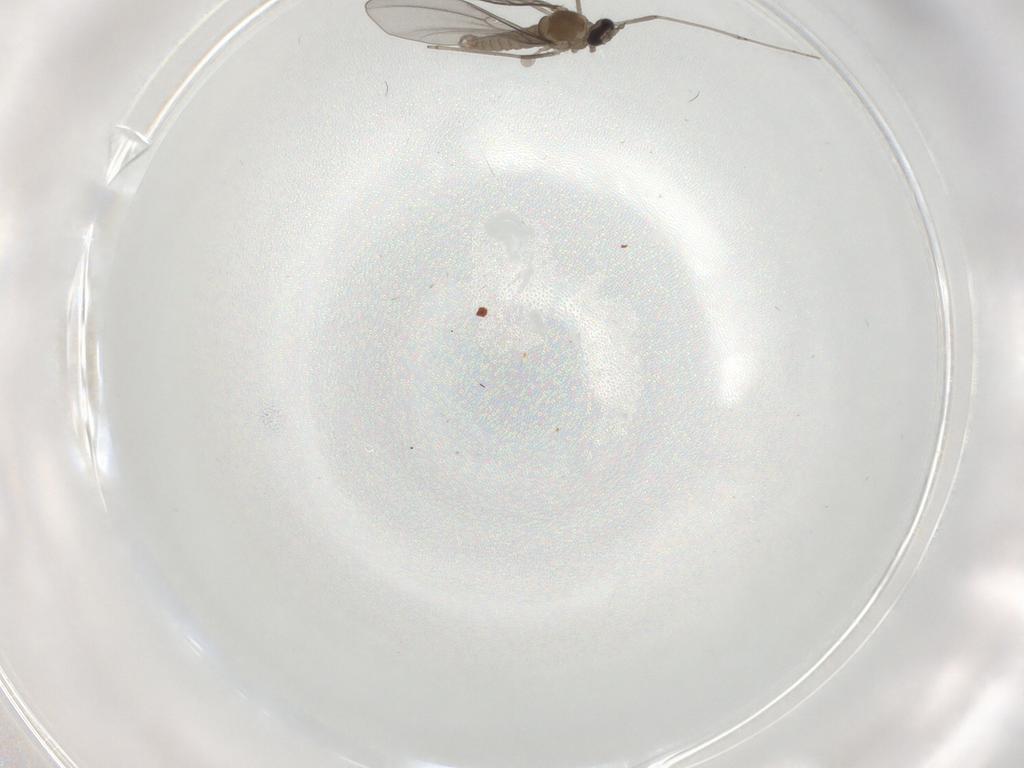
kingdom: Animalia
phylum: Arthropoda
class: Insecta
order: Diptera
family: Cecidomyiidae
